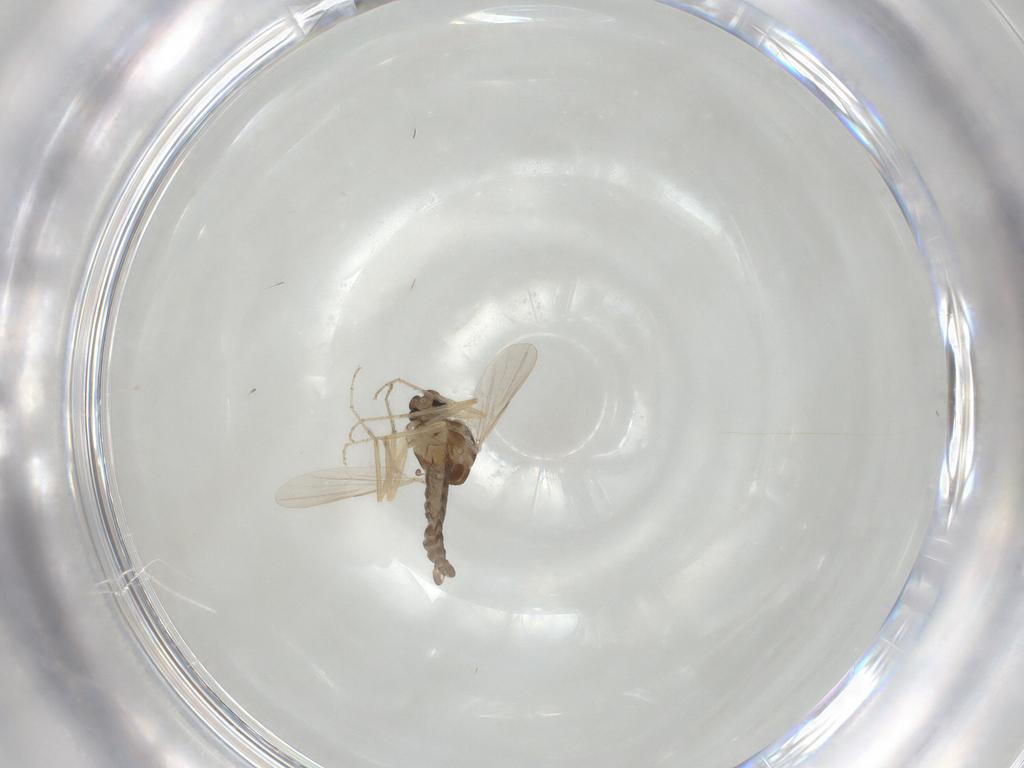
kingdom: Animalia
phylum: Arthropoda
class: Insecta
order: Diptera
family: Ceratopogonidae
